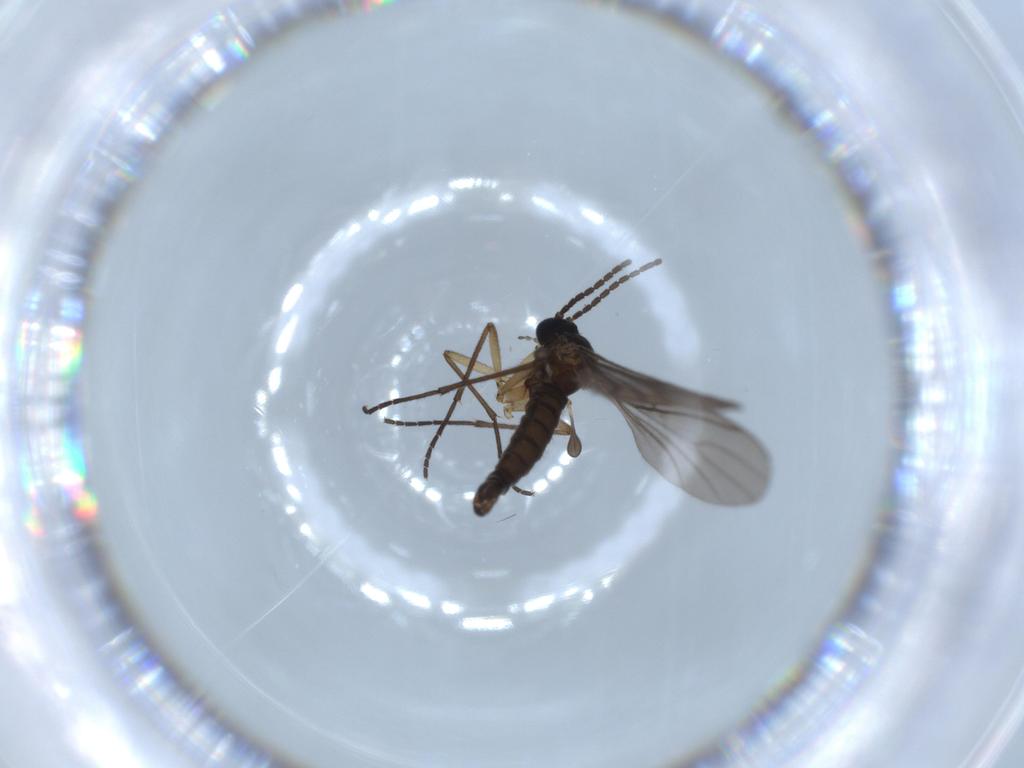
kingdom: Animalia
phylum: Arthropoda
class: Insecta
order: Diptera
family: Sciaridae
